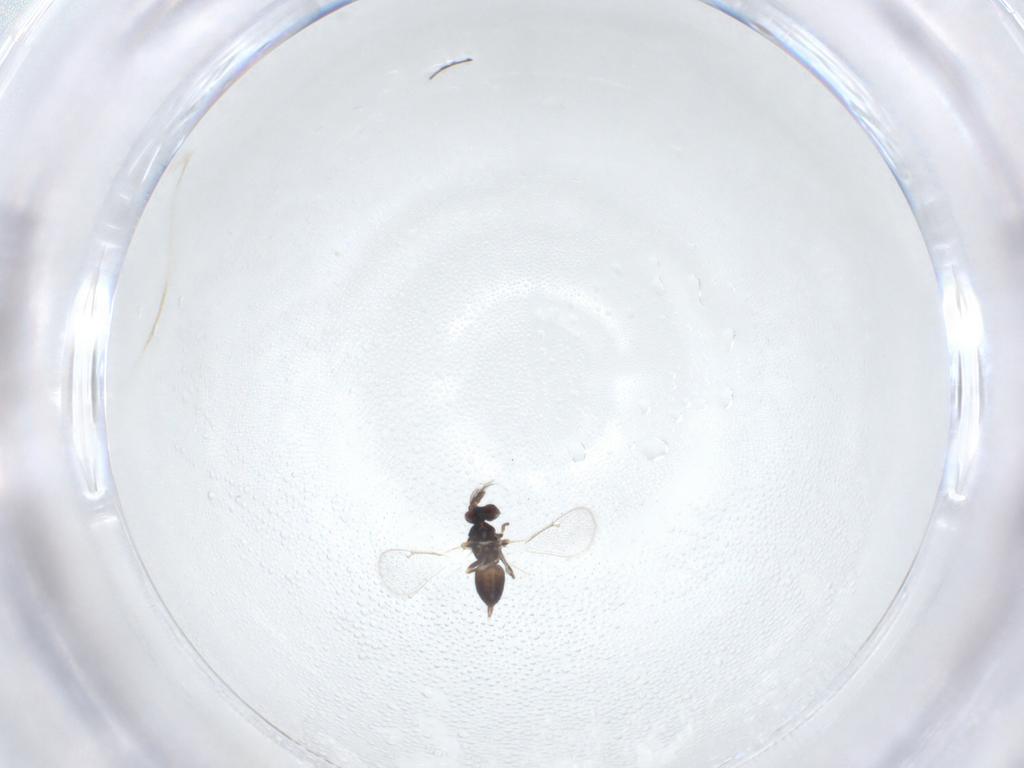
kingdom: Animalia
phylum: Arthropoda
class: Insecta
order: Hymenoptera
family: Eulophidae
